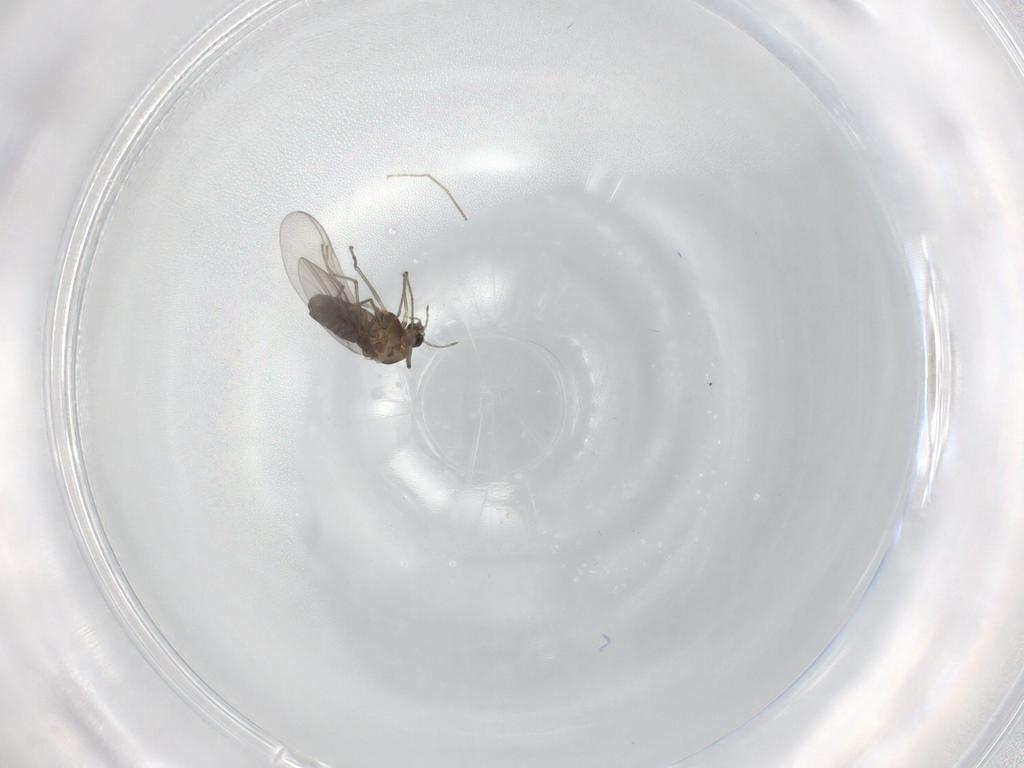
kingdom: Animalia
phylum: Arthropoda
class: Insecta
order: Diptera
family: Chironomidae
